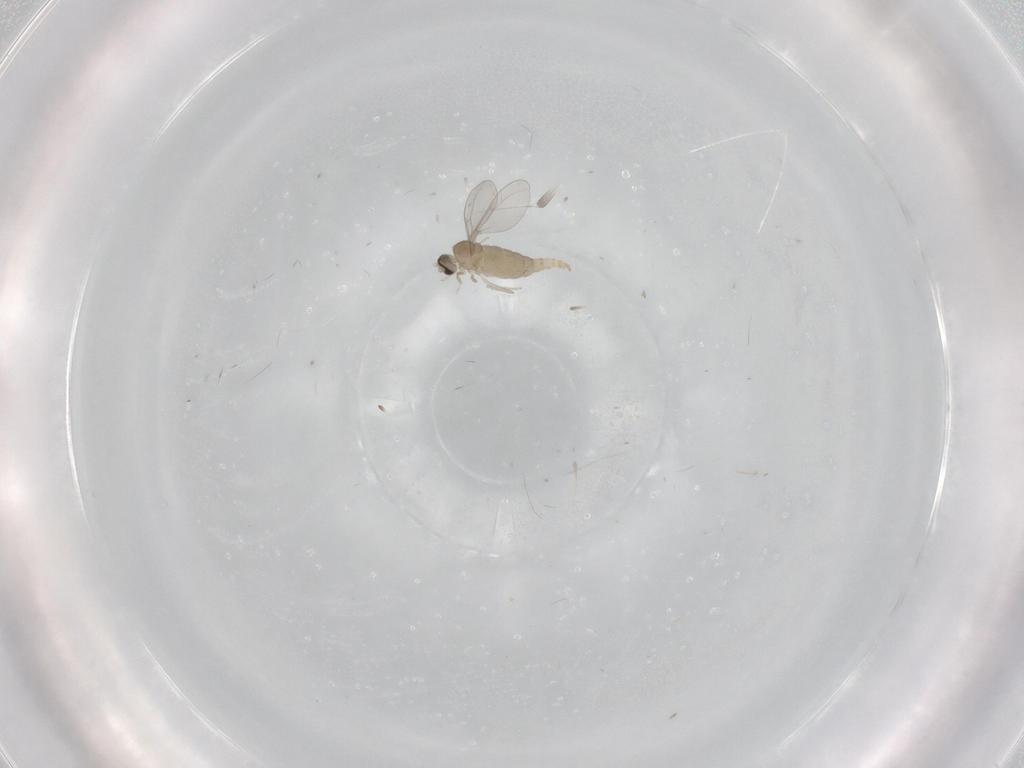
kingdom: Animalia
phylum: Arthropoda
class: Insecta
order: Diptera
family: Cecidomyiidae
